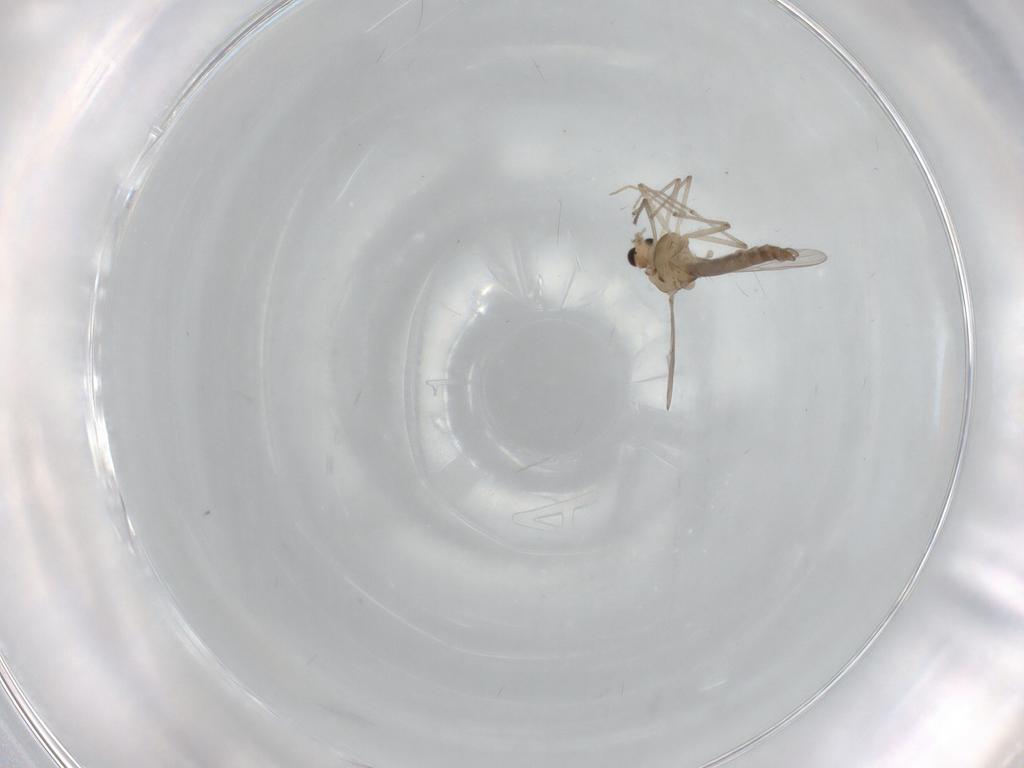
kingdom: Animalia
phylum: Arthropoda
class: Insecta
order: Diptera
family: Chironomidae
